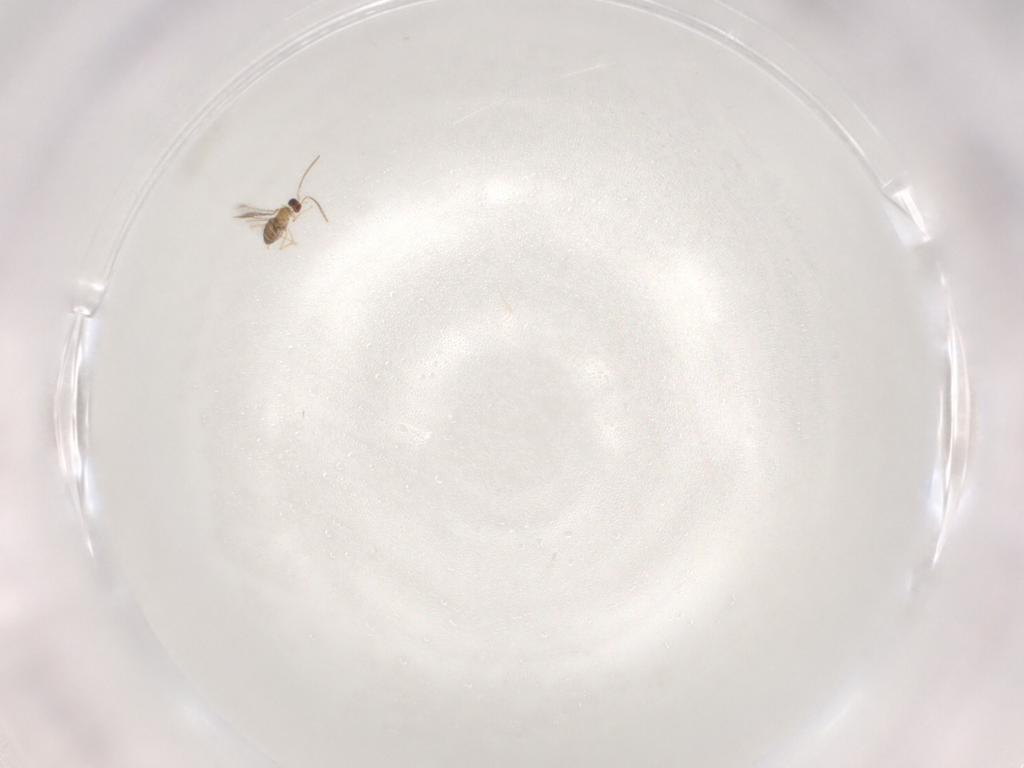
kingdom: Animalia
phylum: Arthropoda
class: Insecta
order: Hymenoptera
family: Mymaridae
